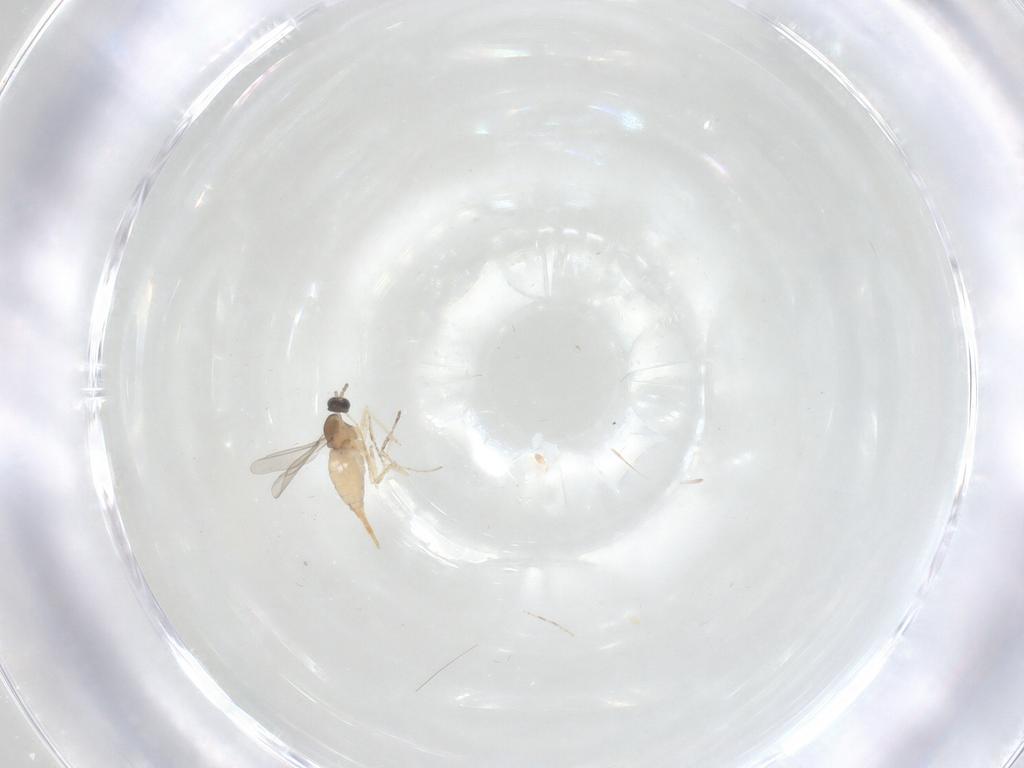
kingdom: Animalia
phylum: Arthropoda
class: Insecta
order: Diptera
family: Cecidomyiidae
